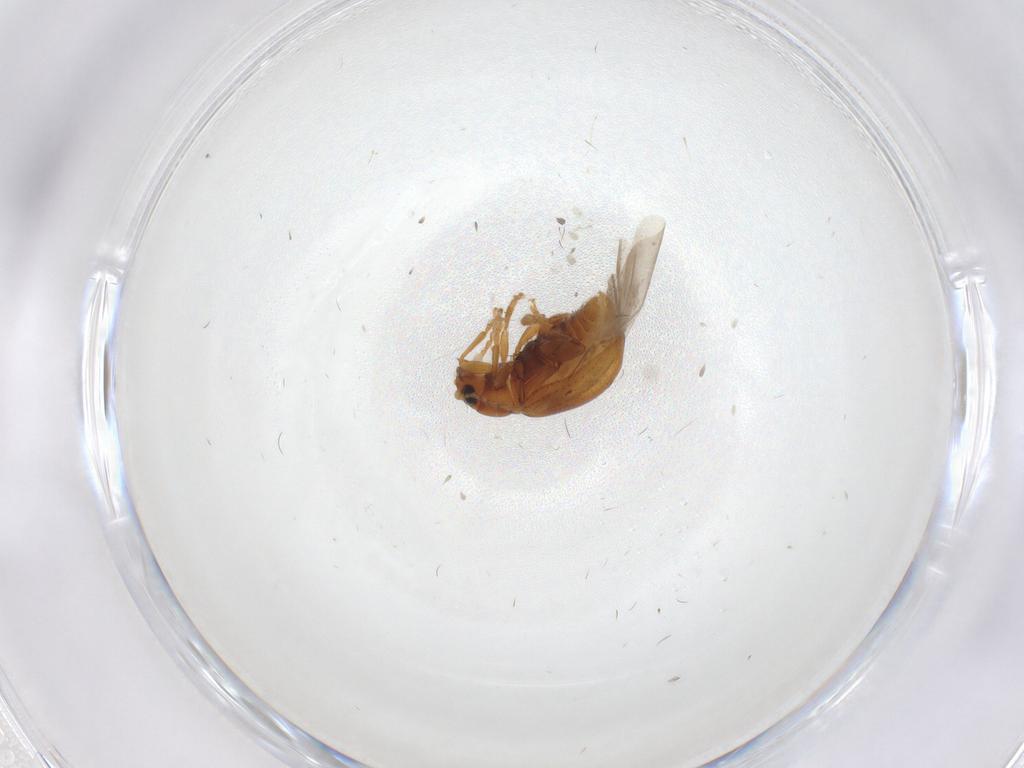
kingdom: Animalia
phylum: Arthropoda
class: Insecta
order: Coleoptera
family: Chrysomelidae
